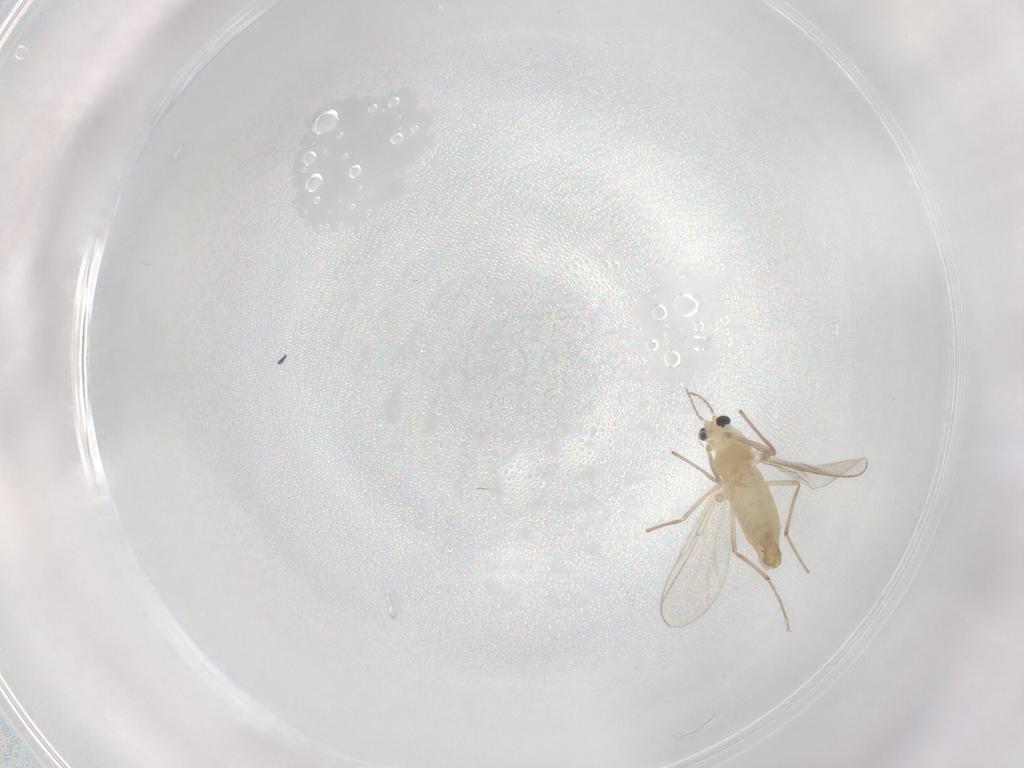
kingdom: Animalia
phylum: Arthropoda
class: Insecta
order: Diptera
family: Chironomidae
